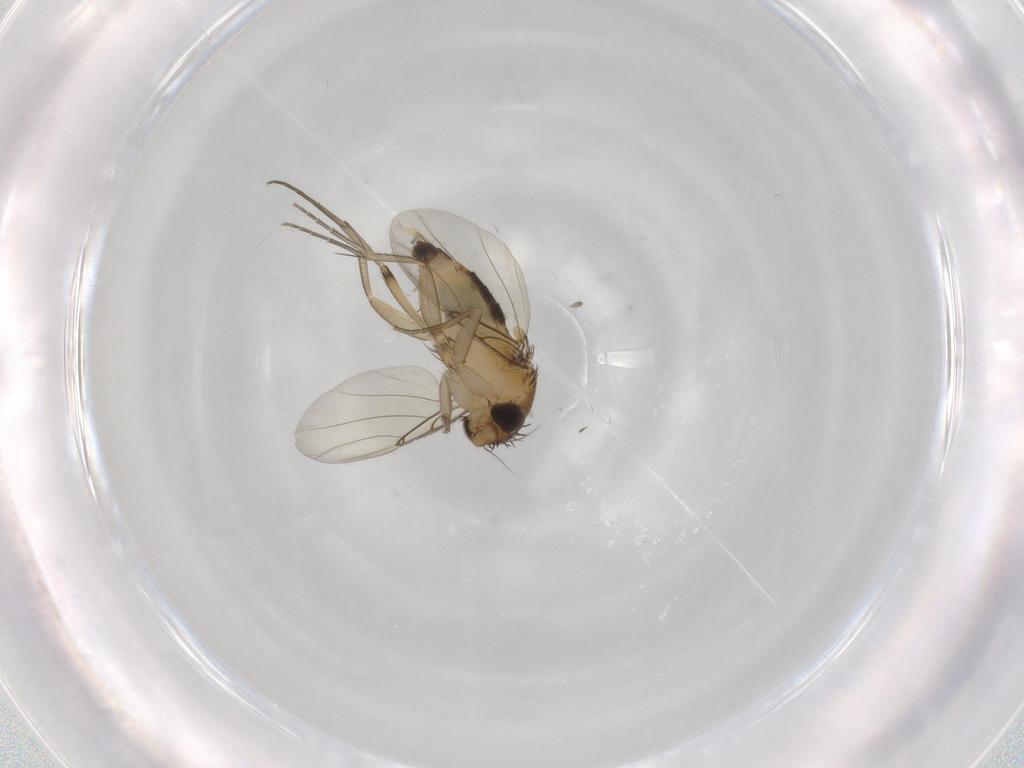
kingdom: Animalia
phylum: Arthropoda
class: Insecta
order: Diptera
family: Phoridae
